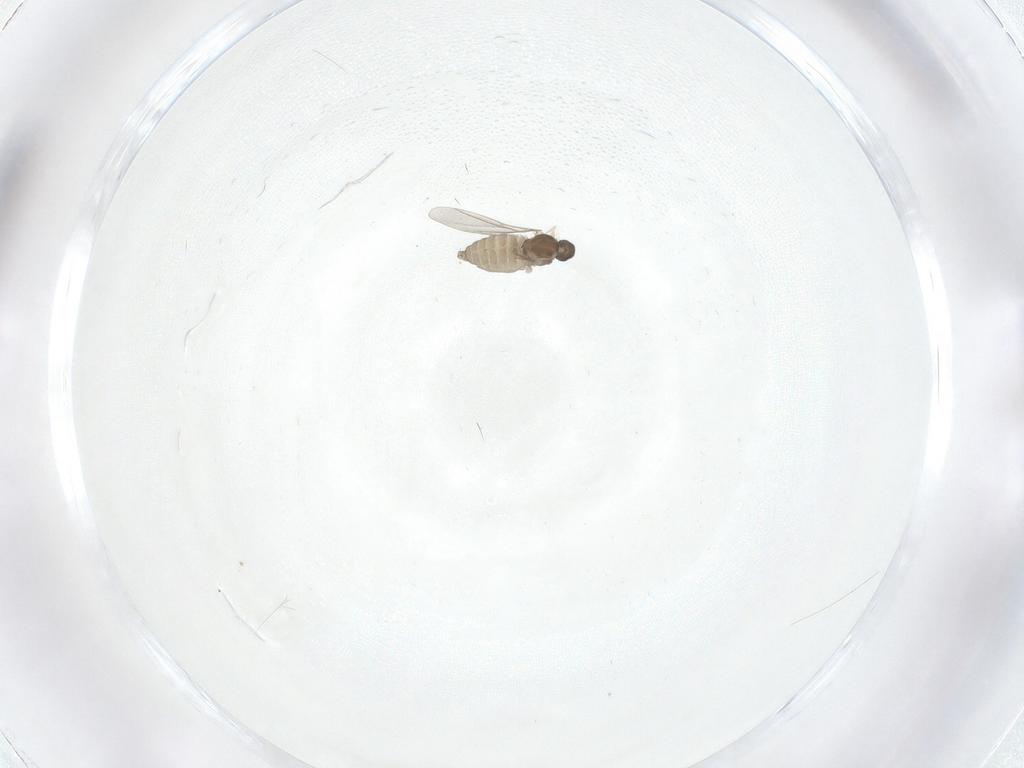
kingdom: Animalia
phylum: Arthropoda
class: Insecta
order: Diptera
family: Cecidomyiidae
